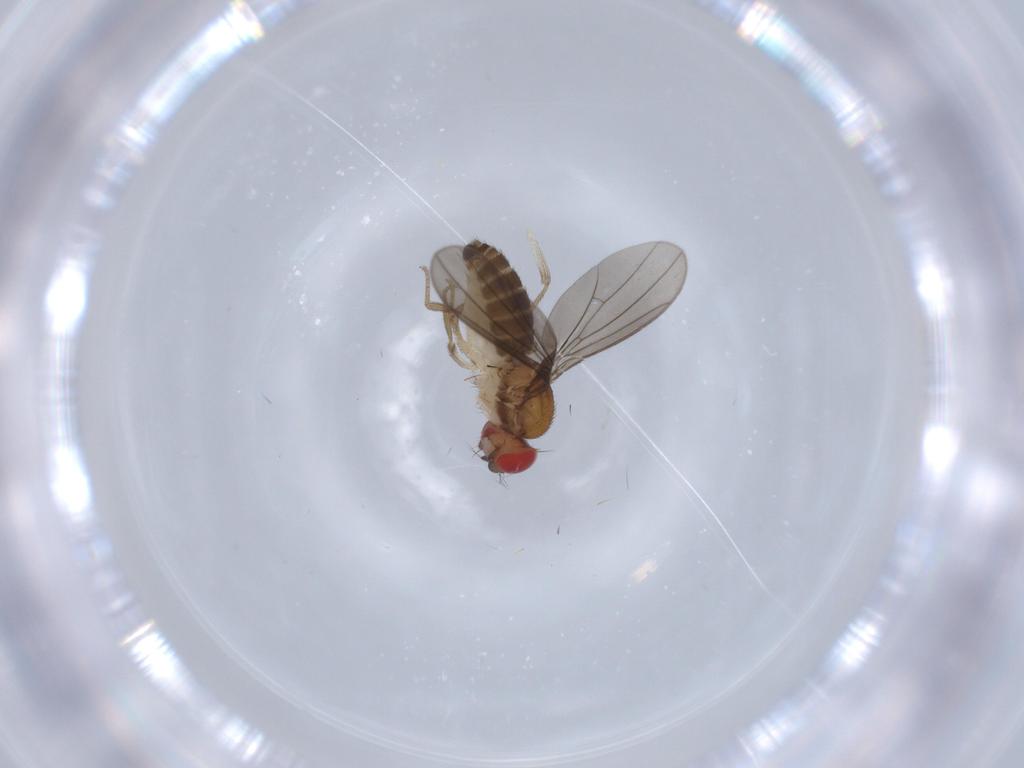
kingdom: Animalia
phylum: Arthropoda
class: Insecta
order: Diptera
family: Drosophilidae
